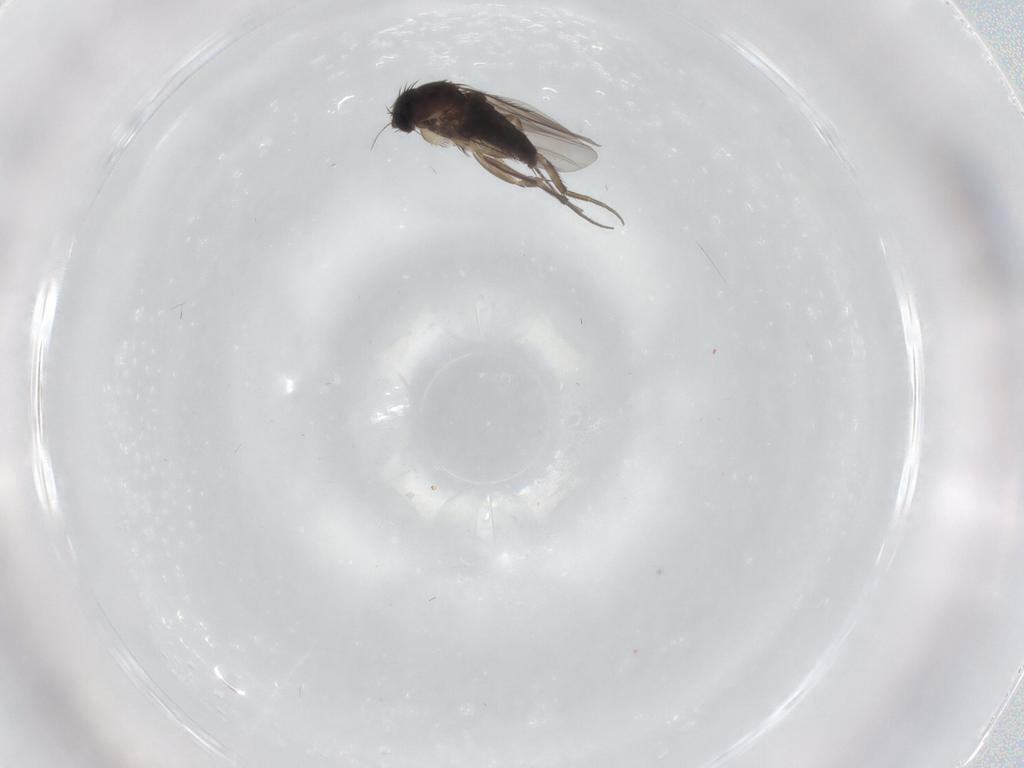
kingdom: Animalia
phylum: Arthropoda
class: Insecta
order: Diptera
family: Phoridae
